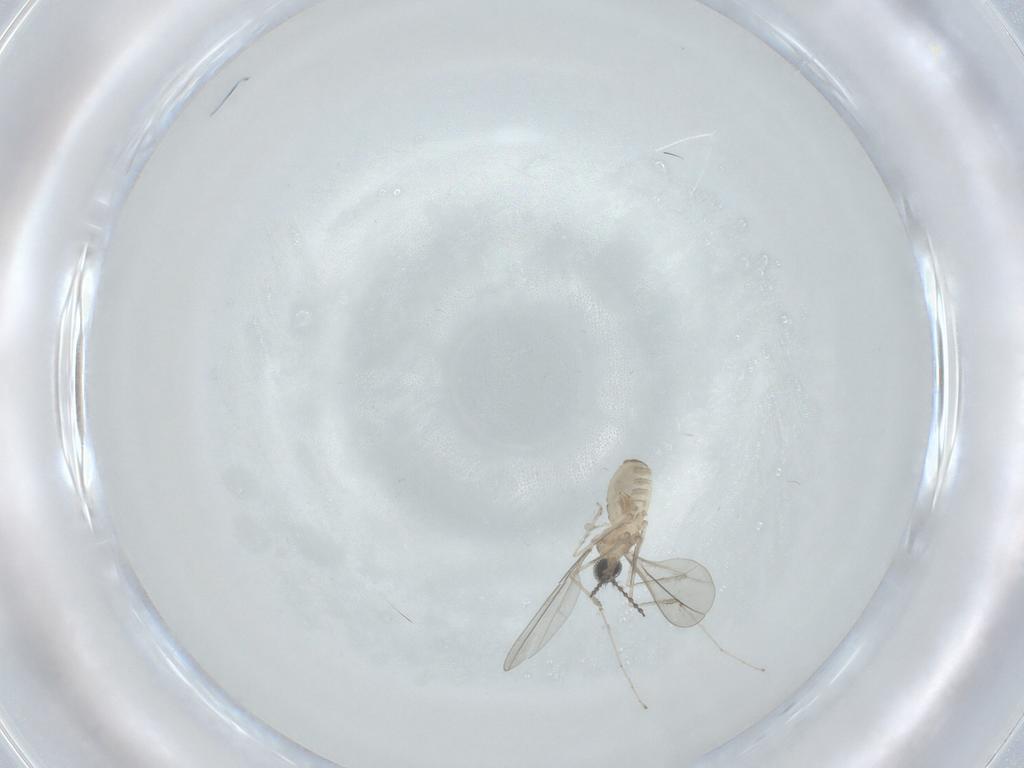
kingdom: Animalia
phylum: Arthropoda
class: Insecta
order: Diptera
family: Cecidomyiidae
